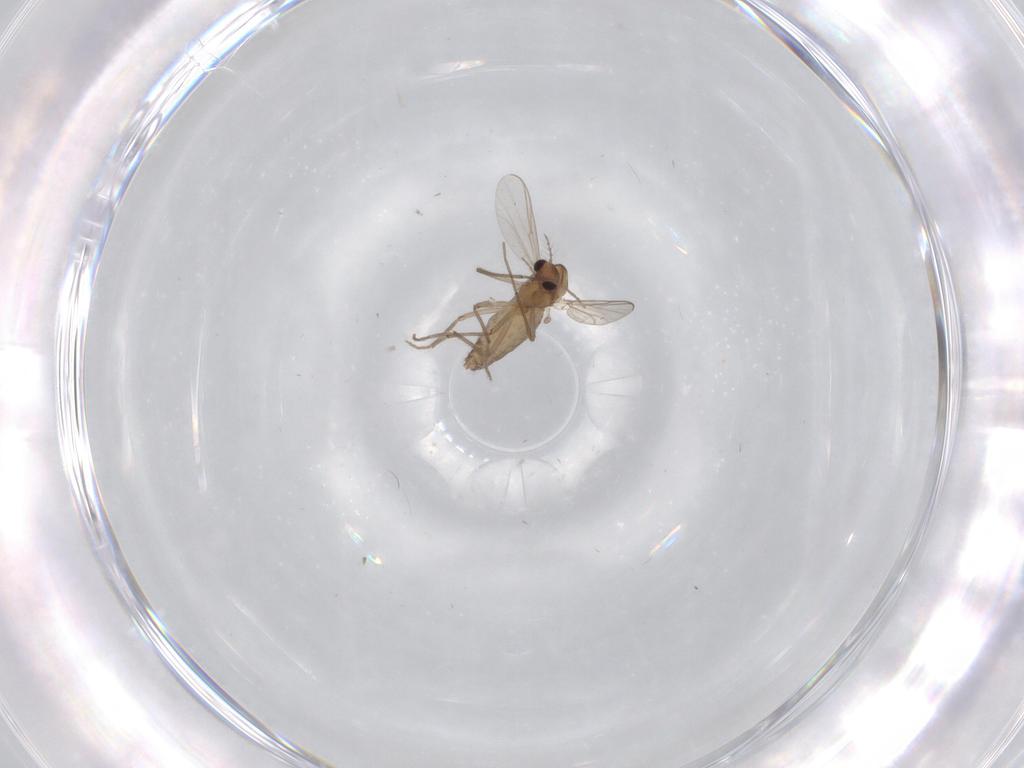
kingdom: Animalia
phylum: Arthropoda
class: Insecta
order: Diptera
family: Chironomidae
